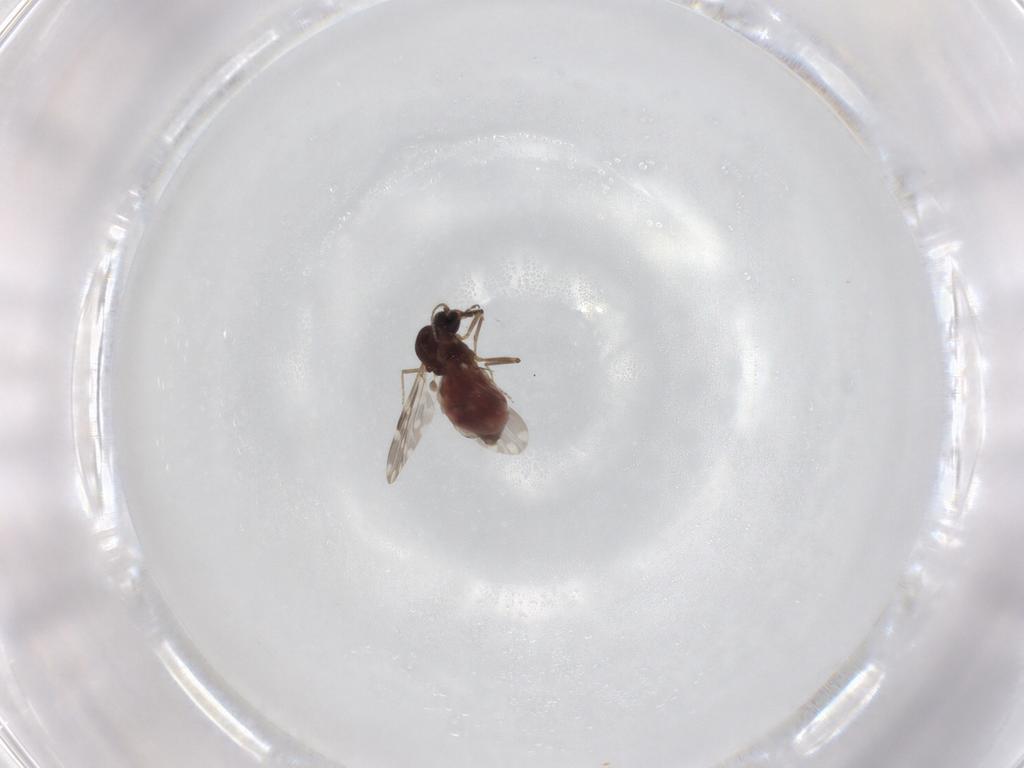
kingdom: Animalia
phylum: Arthropoda
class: Insecta
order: Diptera
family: Ceratopogonidae
